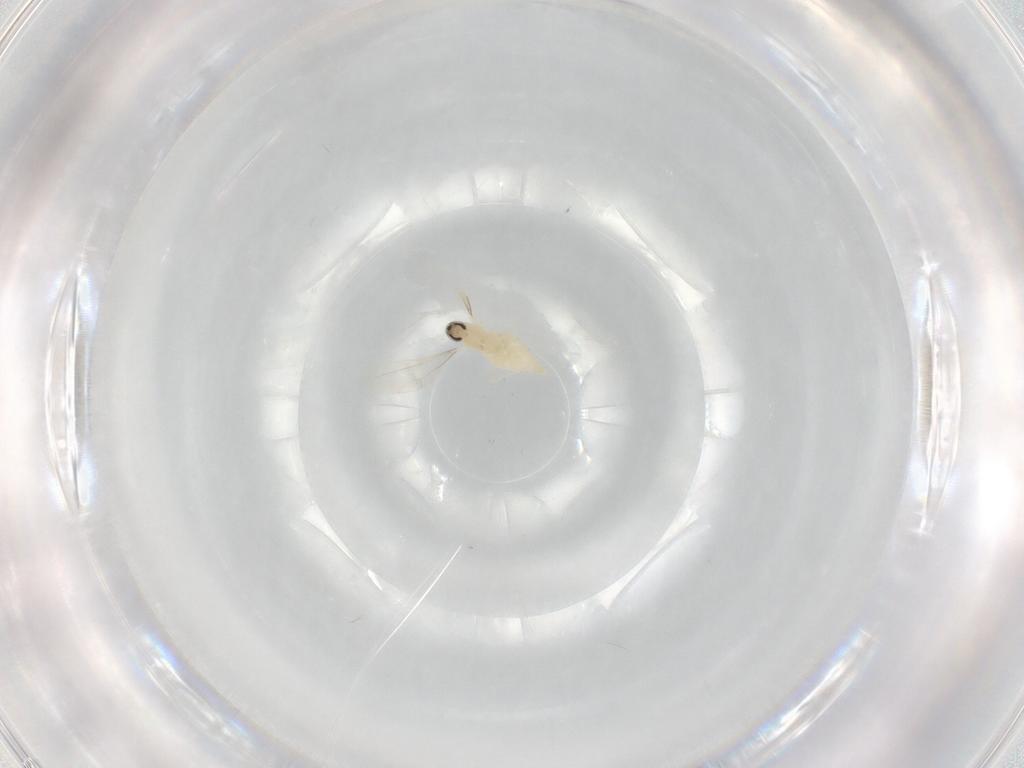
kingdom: Animalia
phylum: Arthropoda
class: Insecta
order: Diptera
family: Cecidomyiidae
